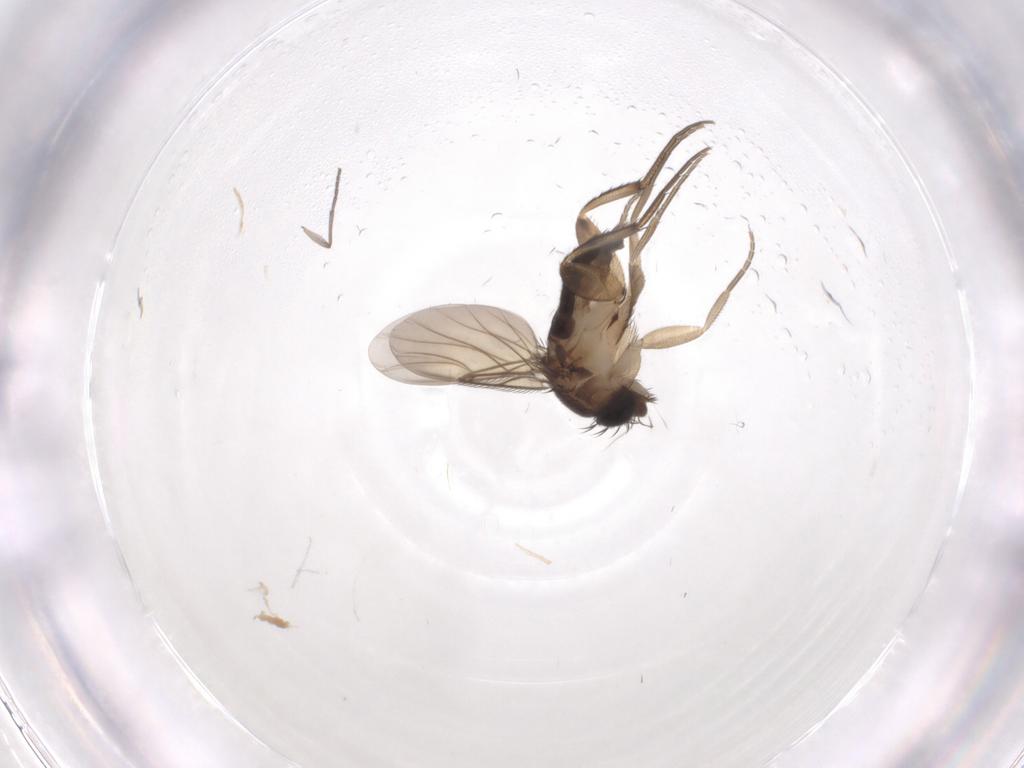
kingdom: Animalia
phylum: Arthropoda
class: Insecta
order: Diptera
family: Phoridae
